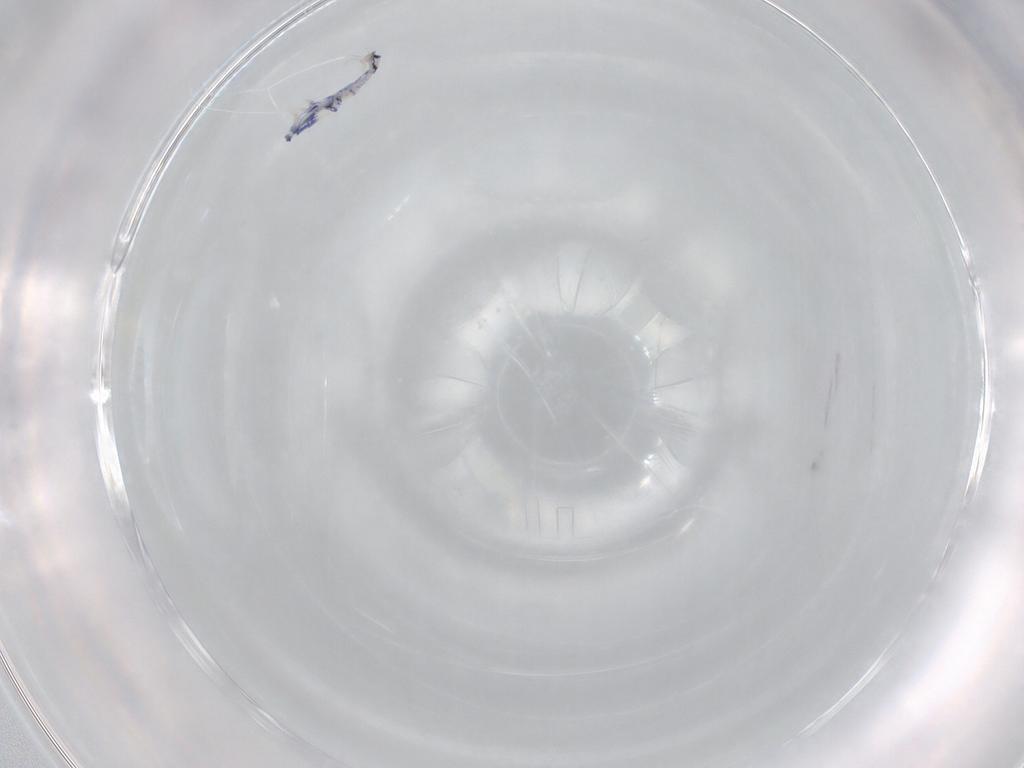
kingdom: Animalia
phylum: Arthropoda
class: Collembola
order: Entomobryomorpha
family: Entomobryidae
